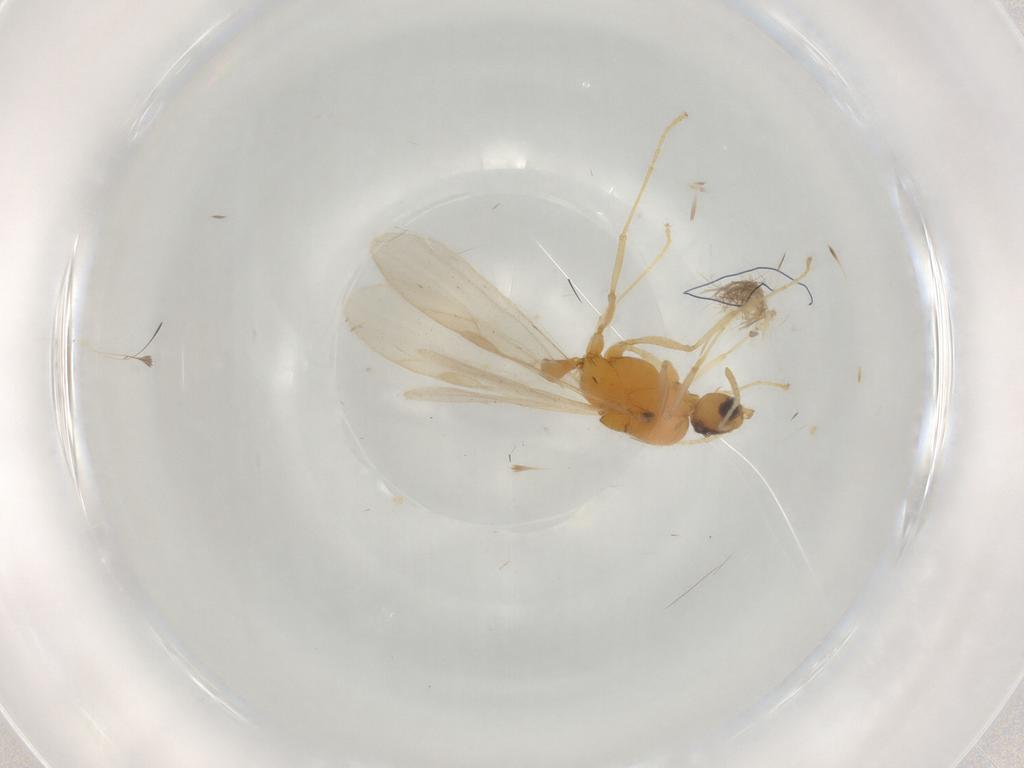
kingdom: Animalia
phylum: Arthropoda
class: Insecta
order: Hymenoptera
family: Formicidae
